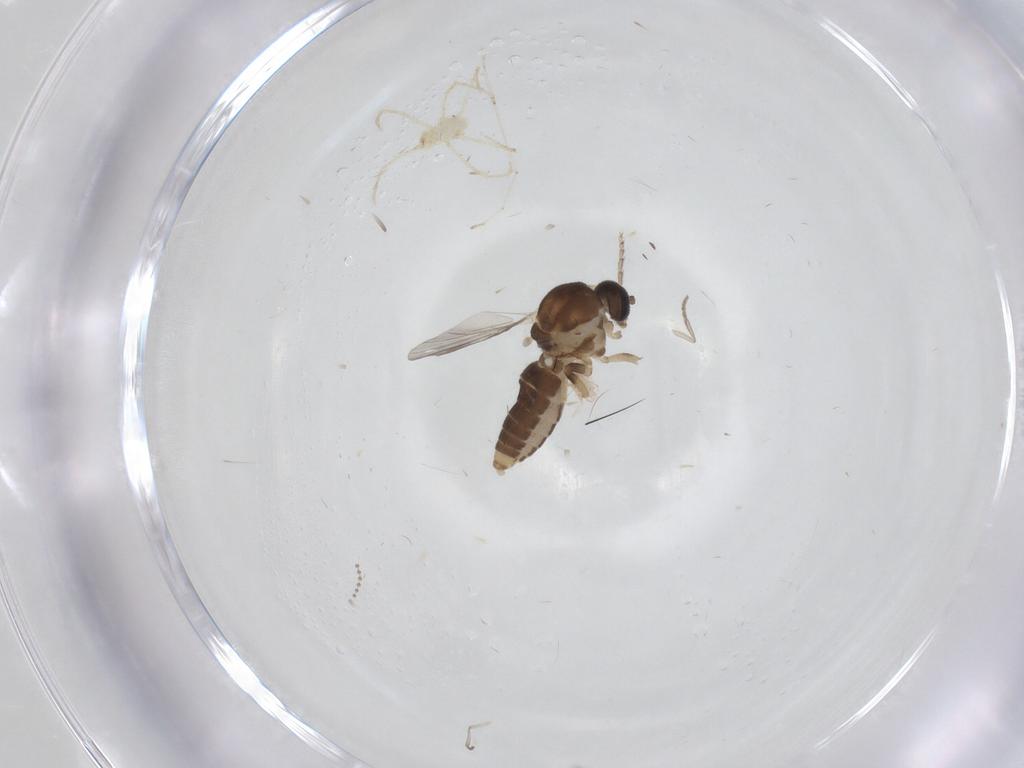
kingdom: Animalia
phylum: Arthropoda
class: Insecta
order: Diptera
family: Ceratopogonidae
